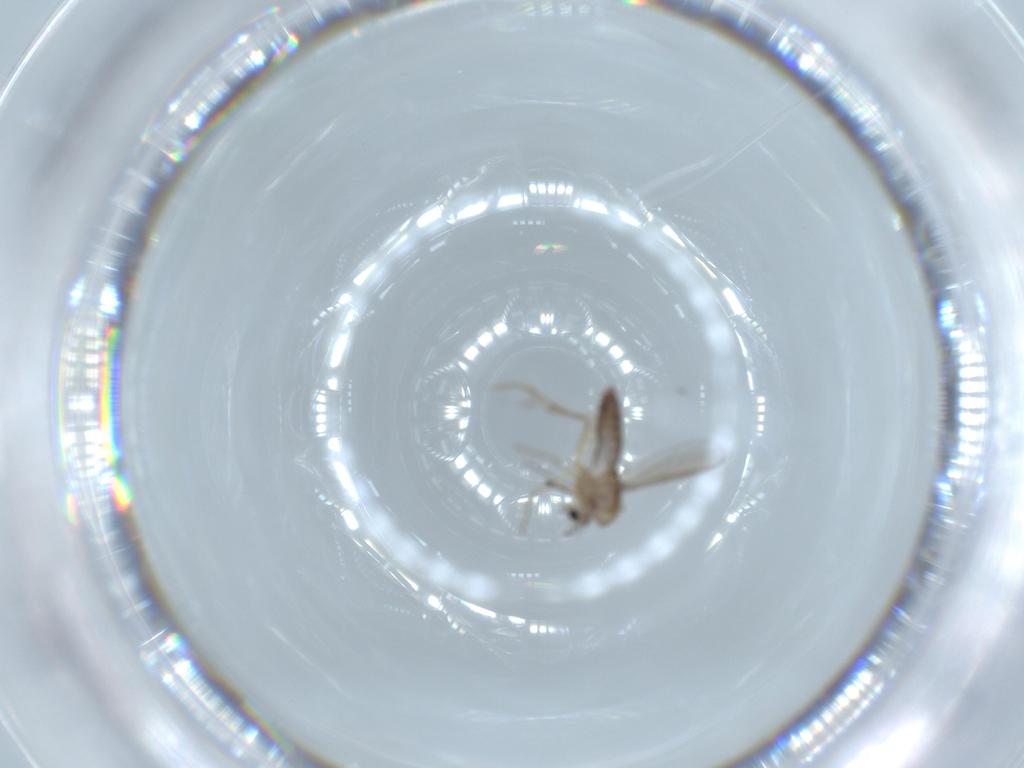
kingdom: Animalia
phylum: Arthropoda
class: Insecta
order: Diptera
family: Chironomidae
